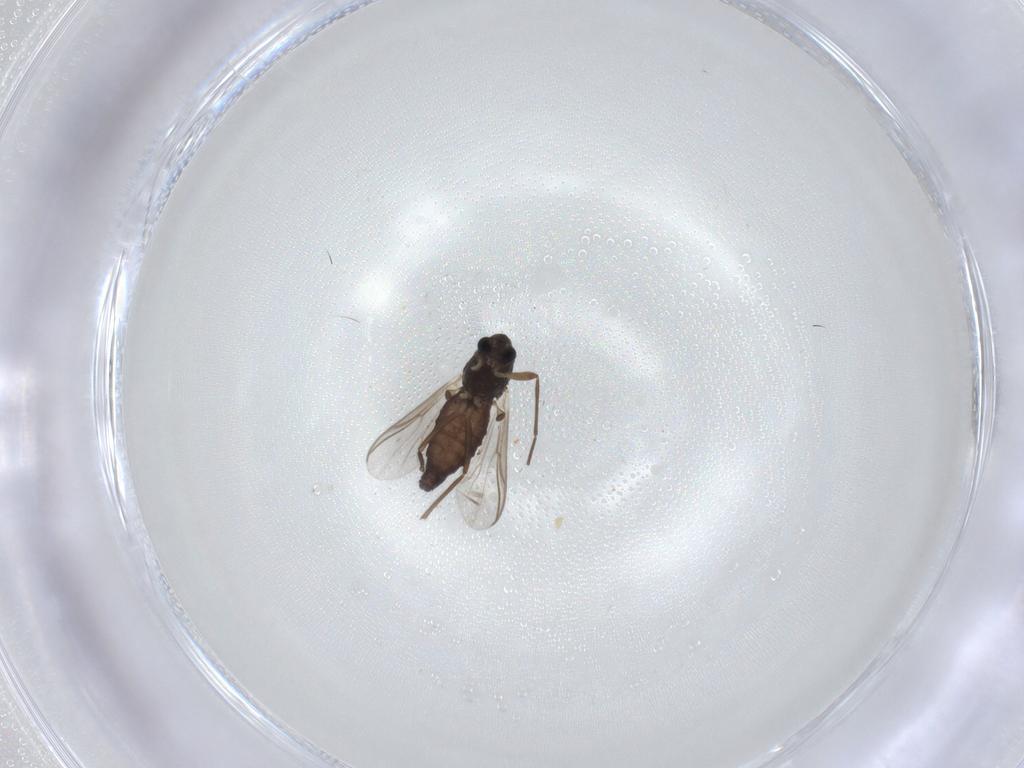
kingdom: Animalia
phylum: Arthropoda
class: Insecta
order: Diptera
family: Chironomidae
